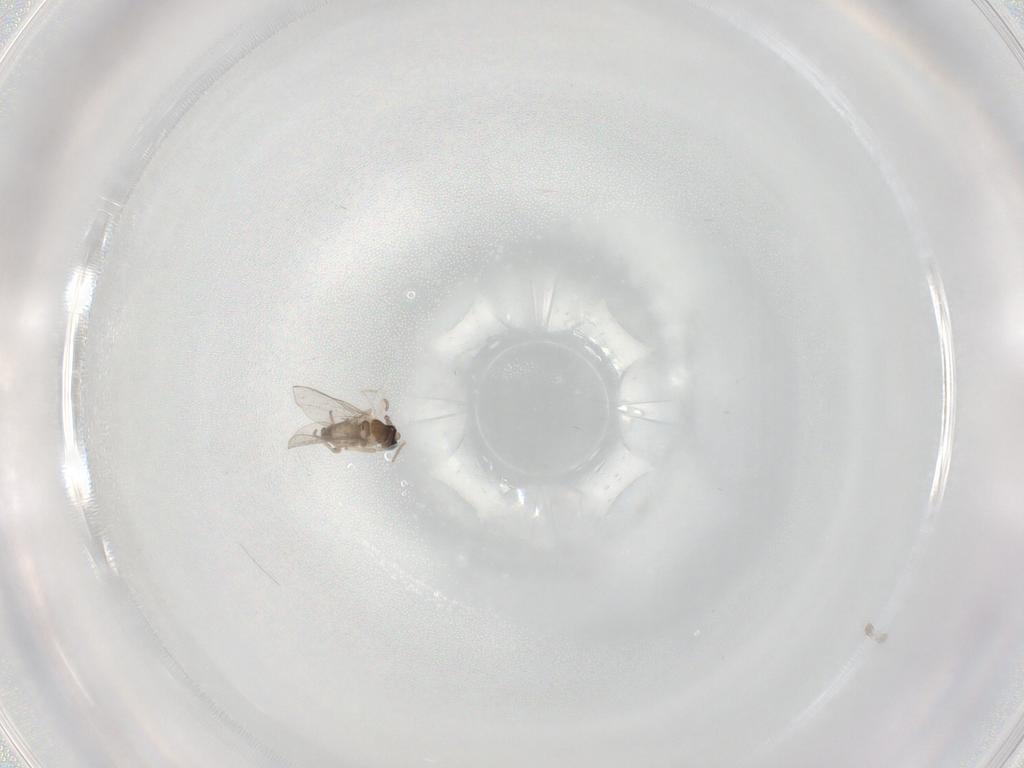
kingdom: Animalia
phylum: Arthropoda
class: Insecta
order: Diptera
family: Cecidomyiidae
